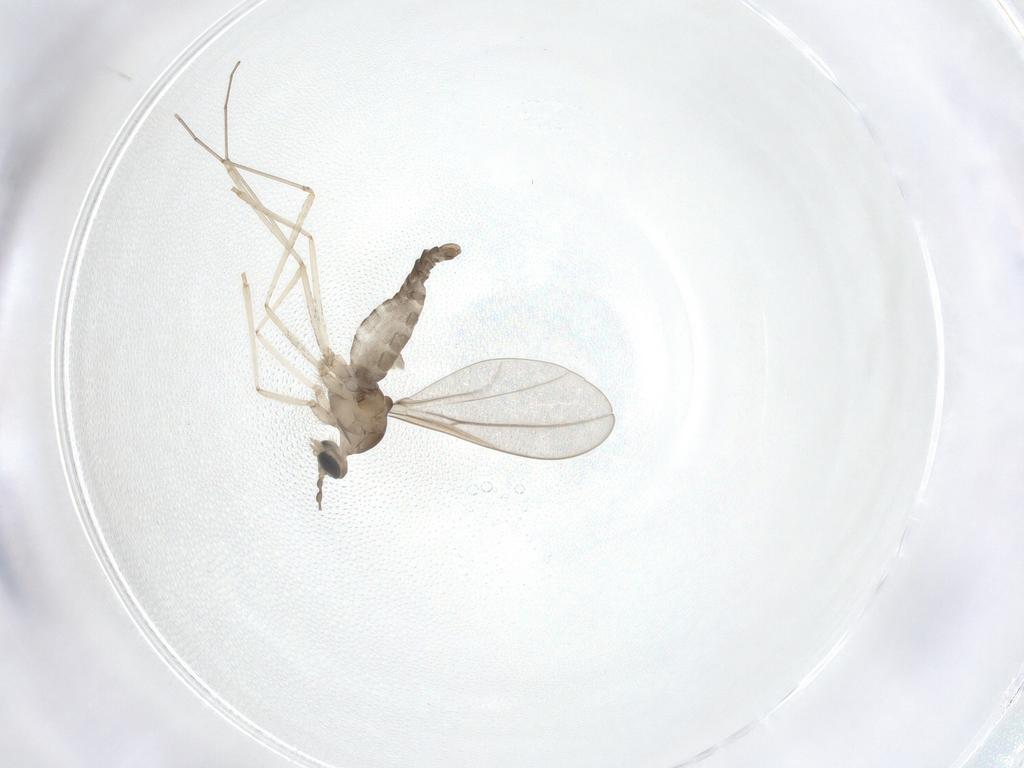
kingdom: Animalia
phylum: Arthropoda
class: Insecta
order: Diptera
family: Cecidomyiidae
